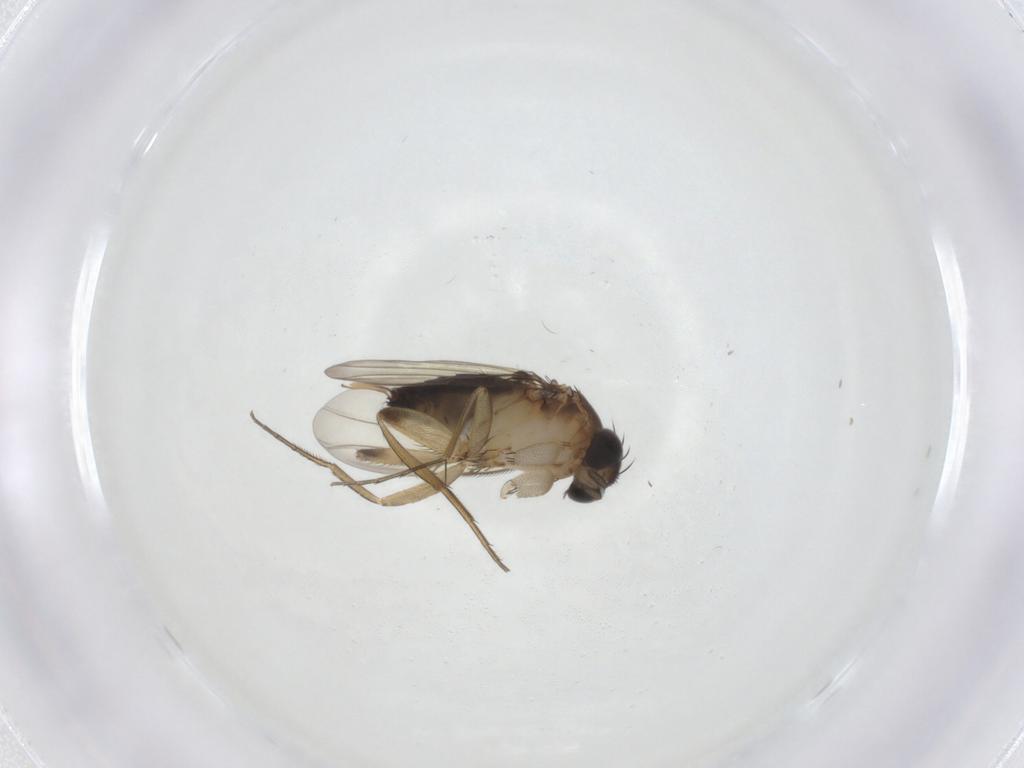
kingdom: Animalia
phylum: Arthropoda
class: Insecta
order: Diptera
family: Phoridae
